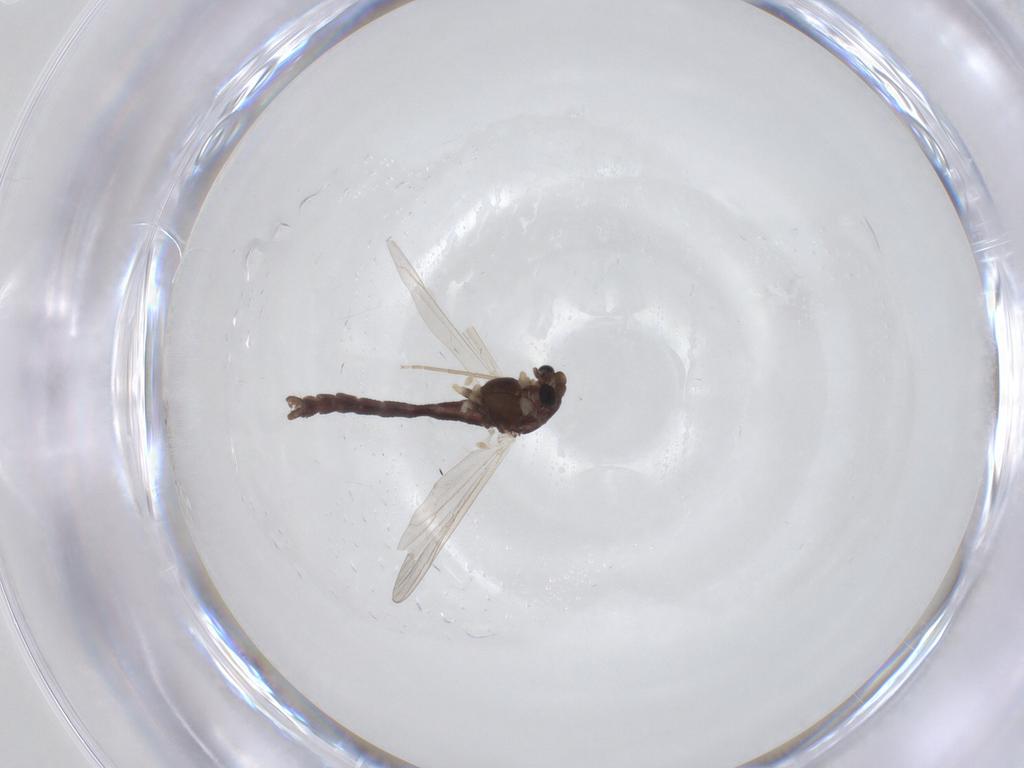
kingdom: Animalia
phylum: Arthropoda
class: Insecta
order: Diptera
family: Chironomidae
